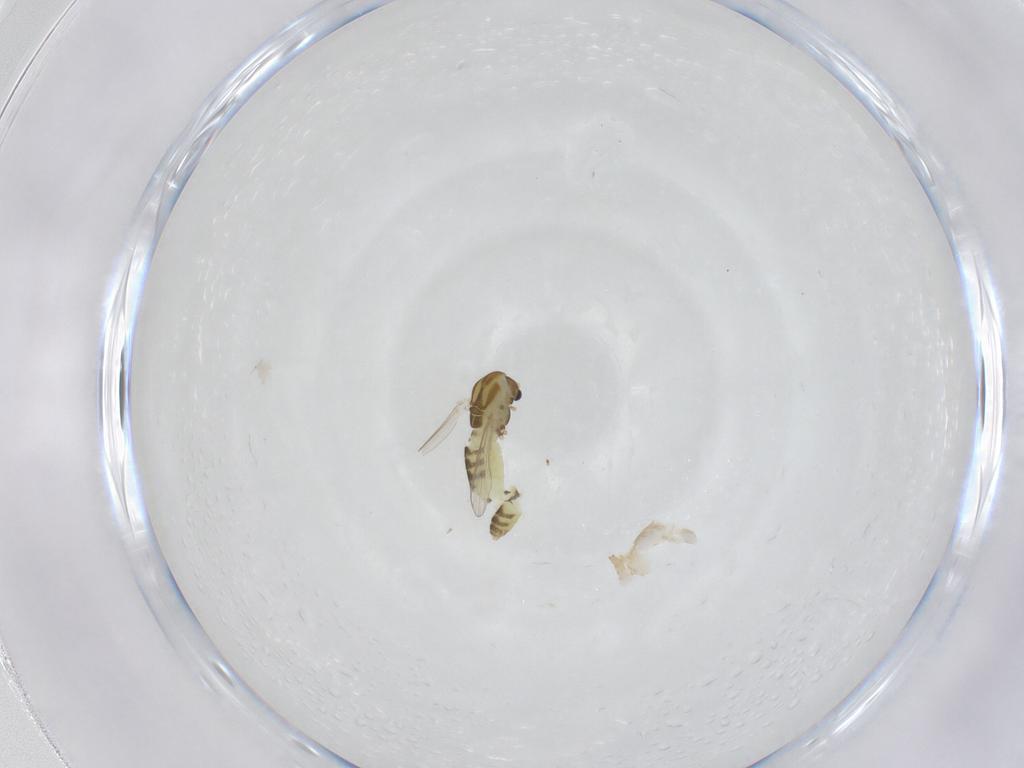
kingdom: Animalia
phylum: Arthropoda
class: Insecta
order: Diptera
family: Chironomidae
